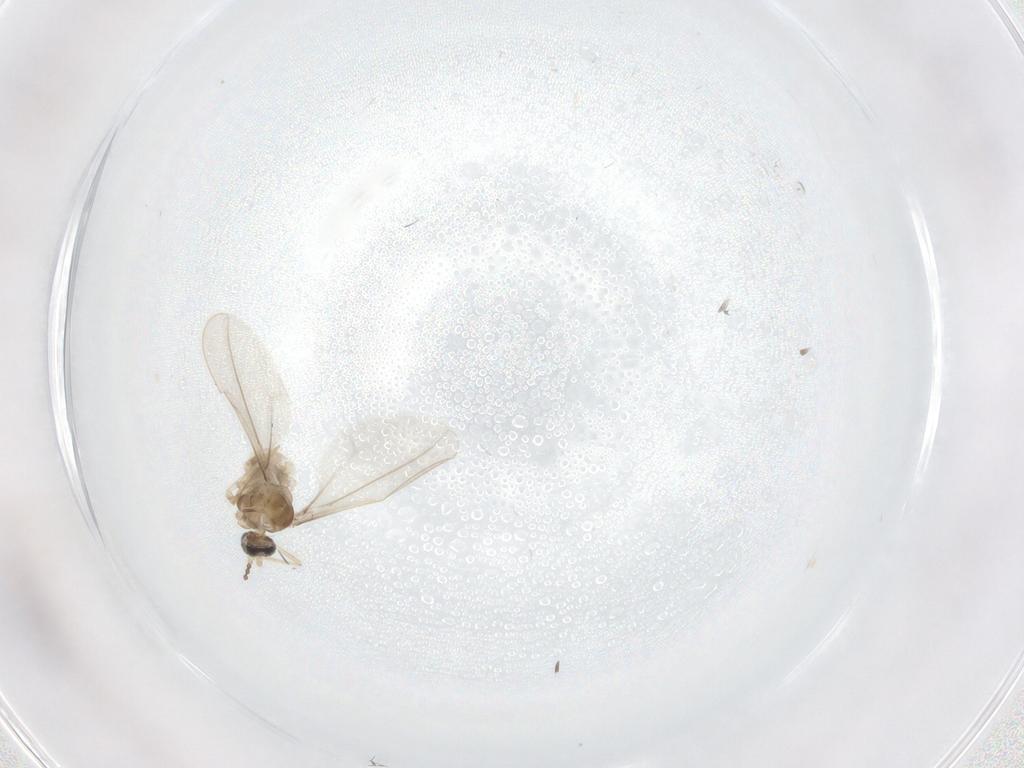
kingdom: Animalia
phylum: Arthropoda
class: Insecta
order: Diptera
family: Cecidomyiidae
